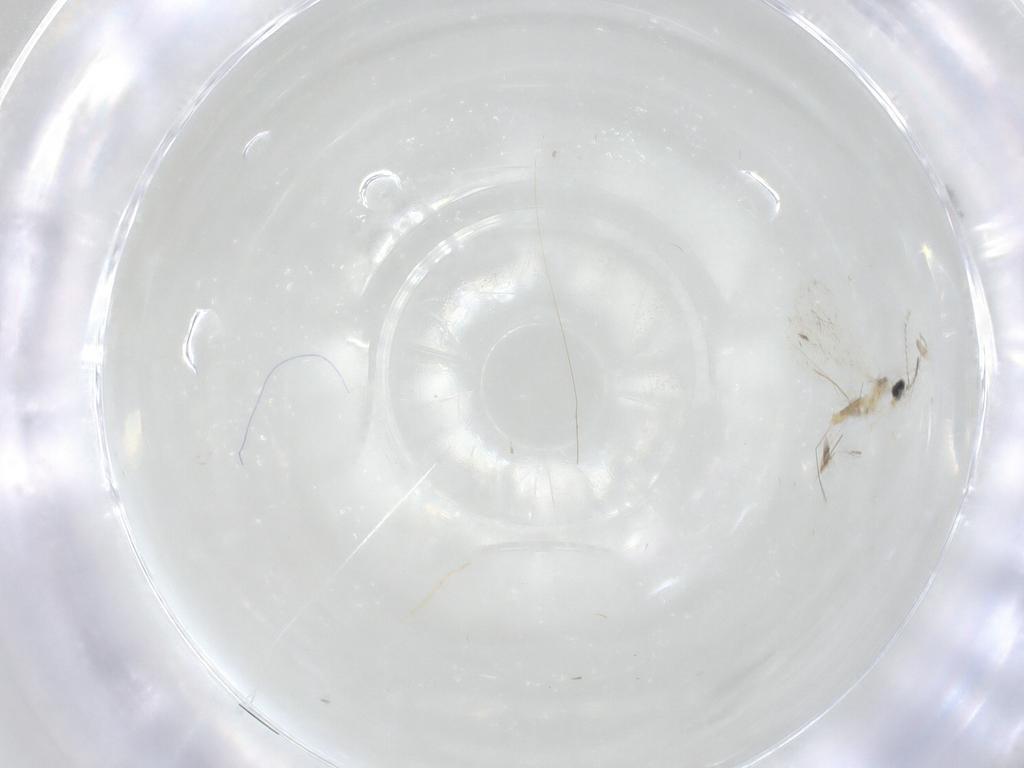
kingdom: Animalia
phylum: Arthropoda
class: Insecta
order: Diptera
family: Cecidomyiidae
